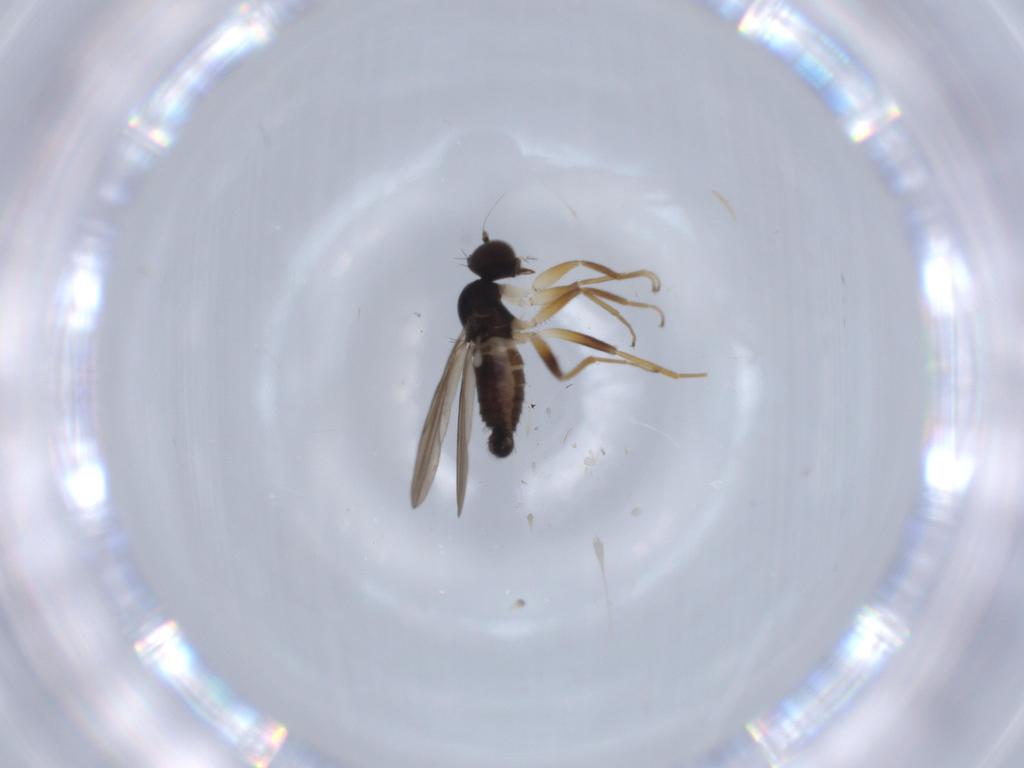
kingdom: Animalia
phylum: Arthropoda
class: Insecta
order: Diptera
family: Hybotidae
